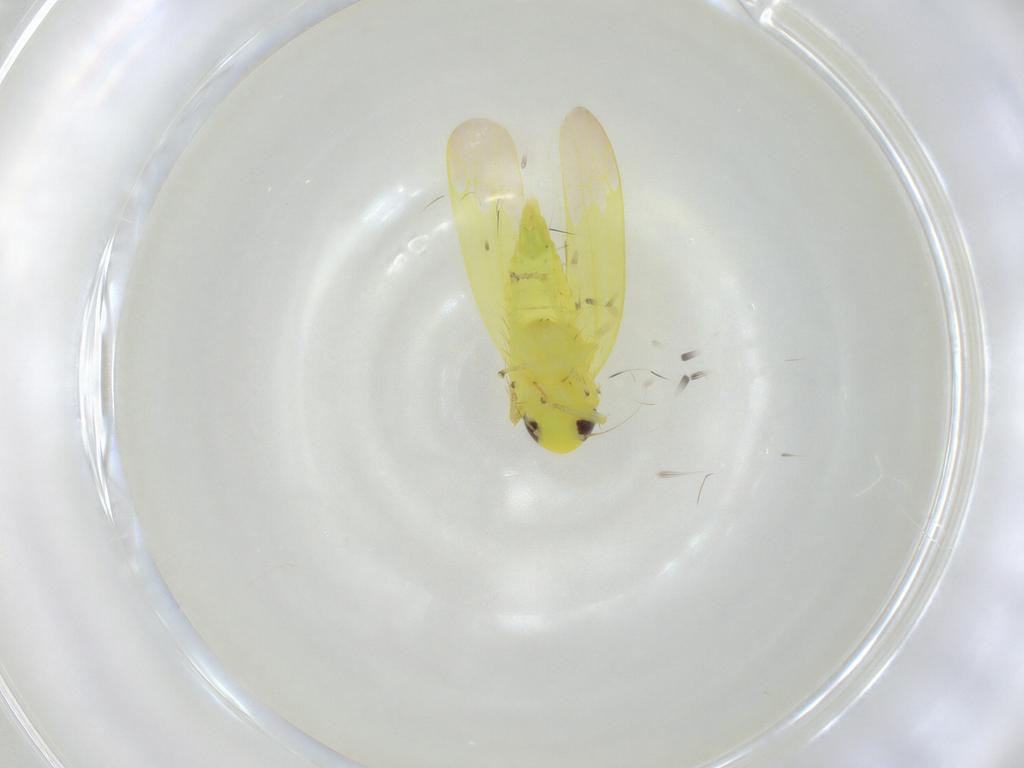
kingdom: Animalia
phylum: Arthropoda
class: Insecta
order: Hemiptera
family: Cicadellidae
